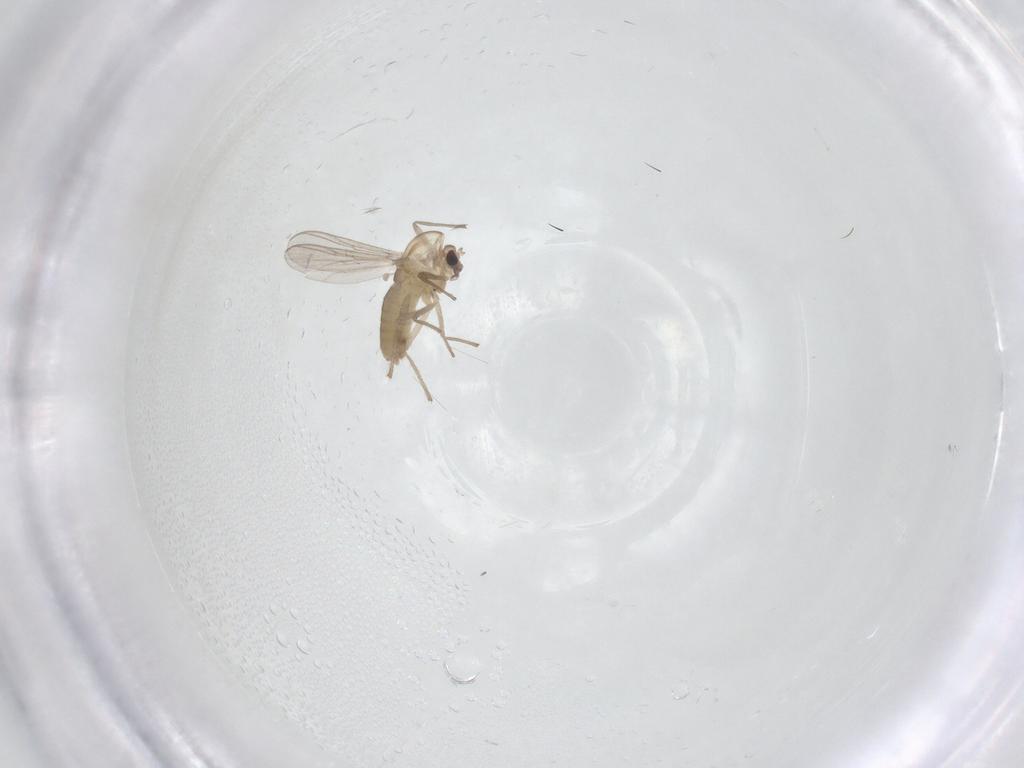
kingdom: Animalia
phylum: Arthropoda
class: Insecta
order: Diptera
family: Chironomidae
